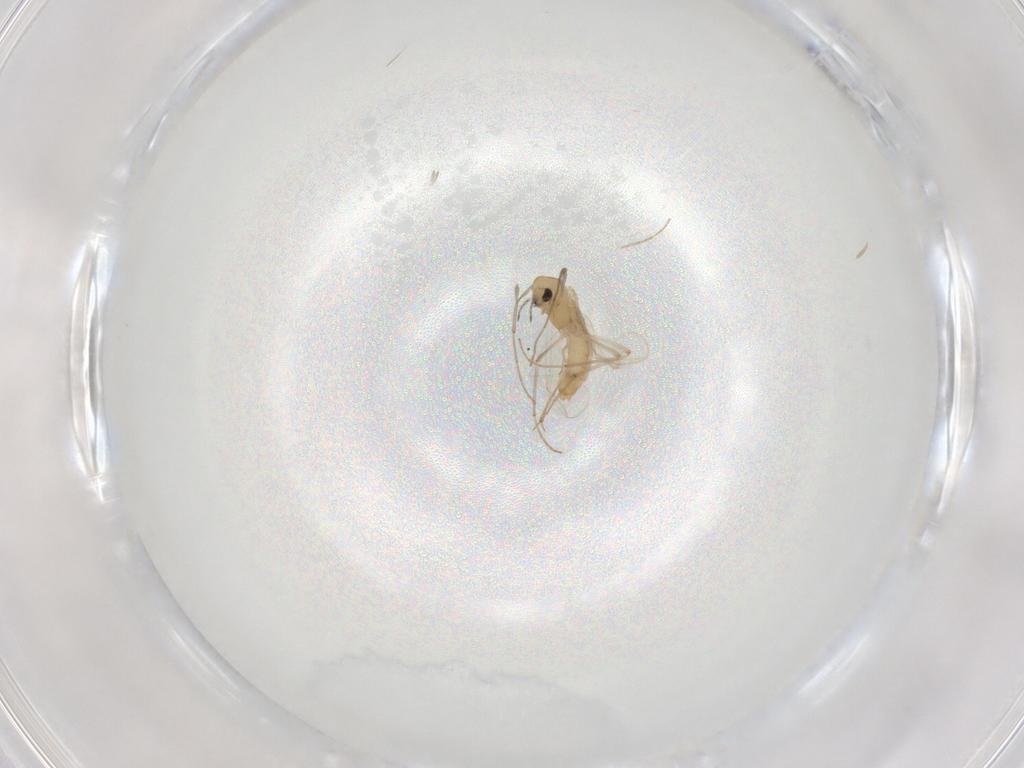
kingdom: Animalia
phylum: Arthropoda
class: Insecta
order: Diptera
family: Chironomidae
